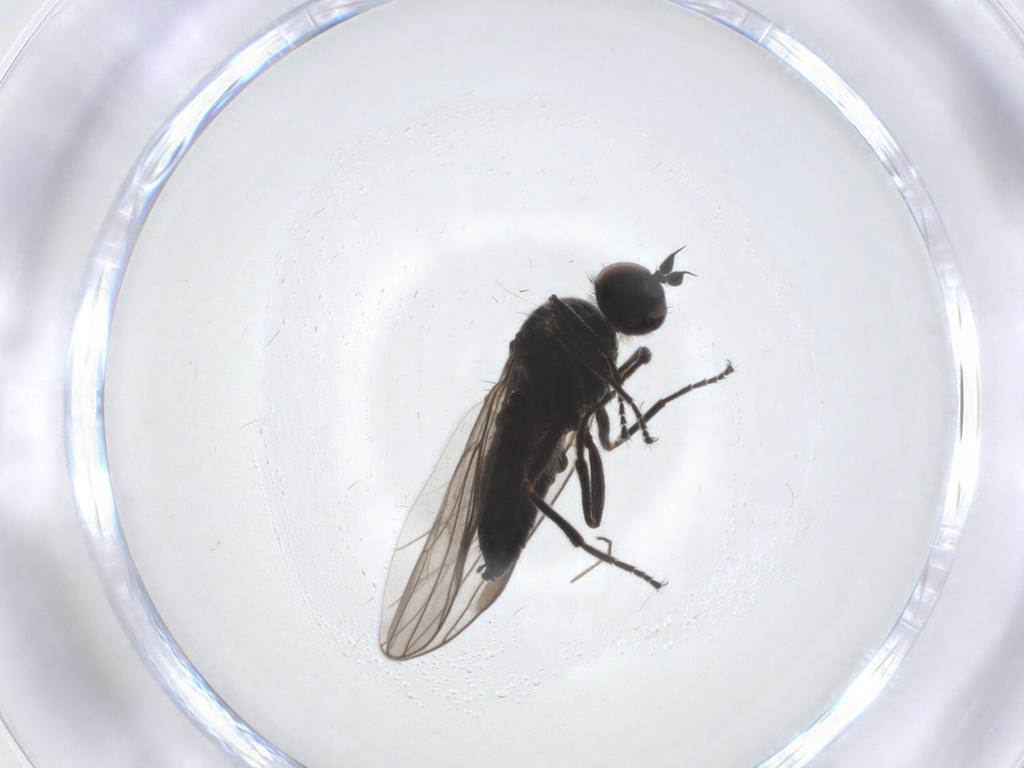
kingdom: Animalia
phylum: Arthropoda
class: Insecta
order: Diptera
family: Hybotidae
